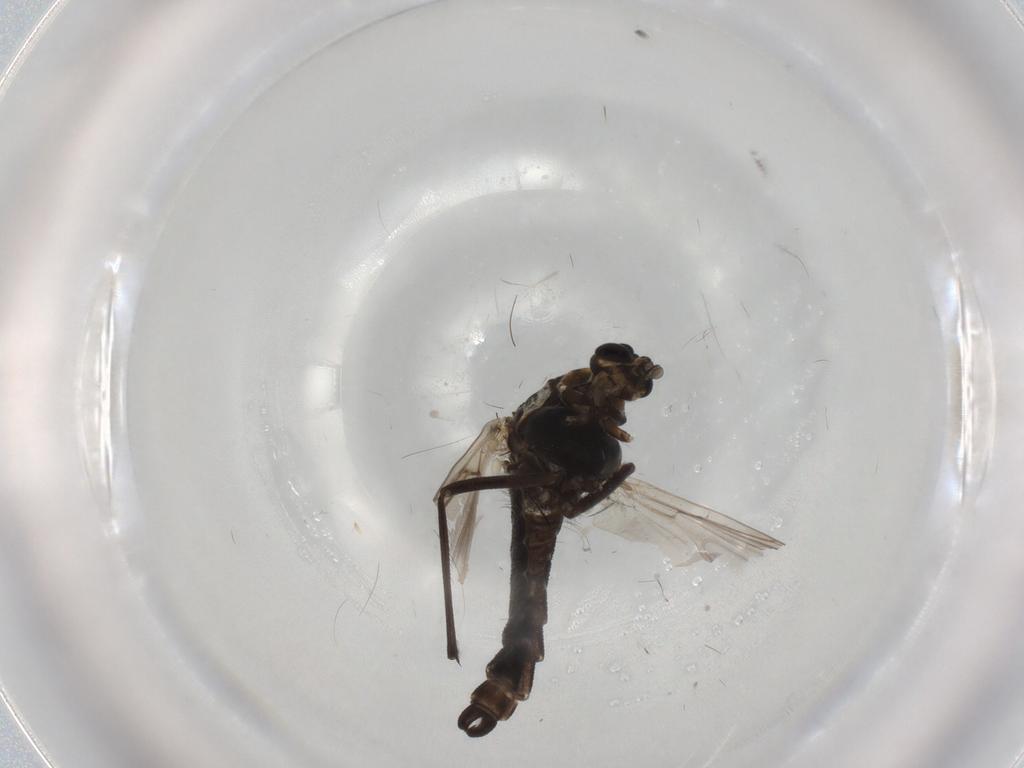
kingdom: Animalia
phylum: Arthropoda
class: Insecta
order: Diptera
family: Chironomidae
